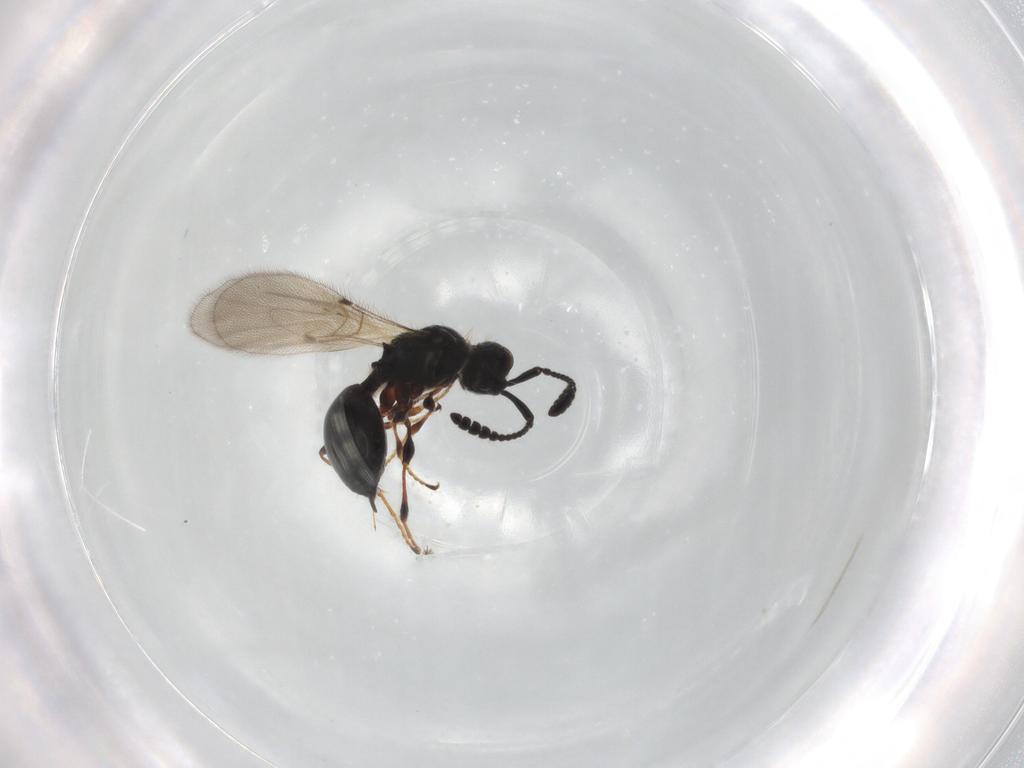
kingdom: Animalia
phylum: Arthropoda
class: Insecta
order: Hymenoptera
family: Diapriidae
